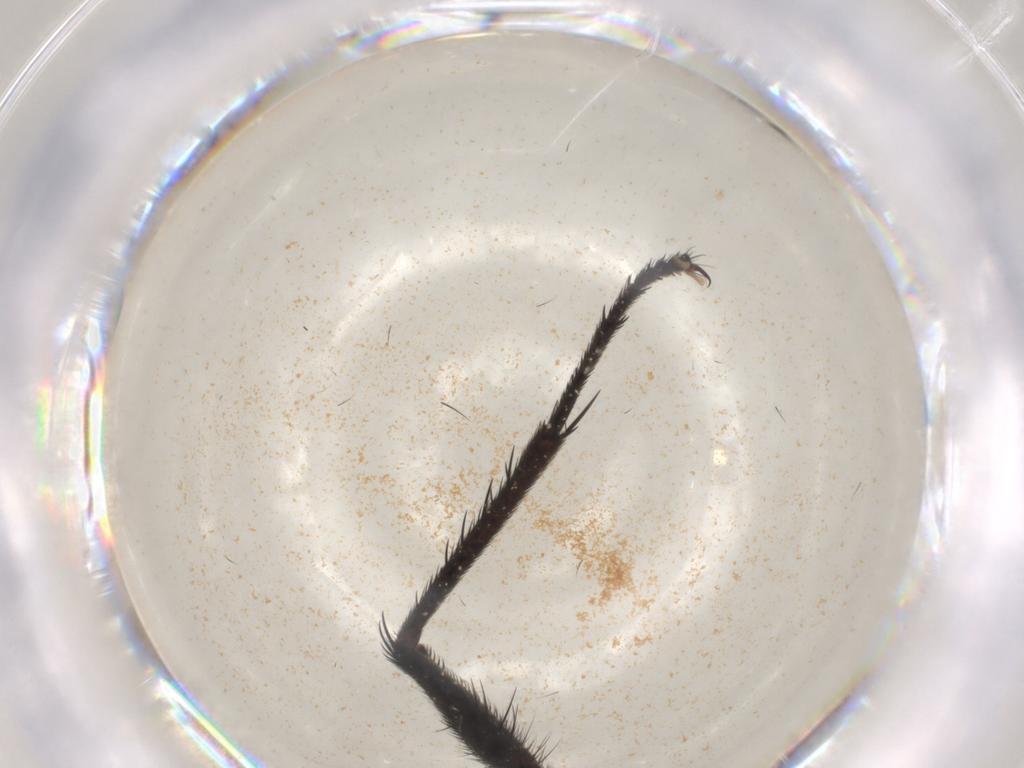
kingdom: Animalia
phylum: Arthropoda
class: Insecta
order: Diptera
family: Muscidae
